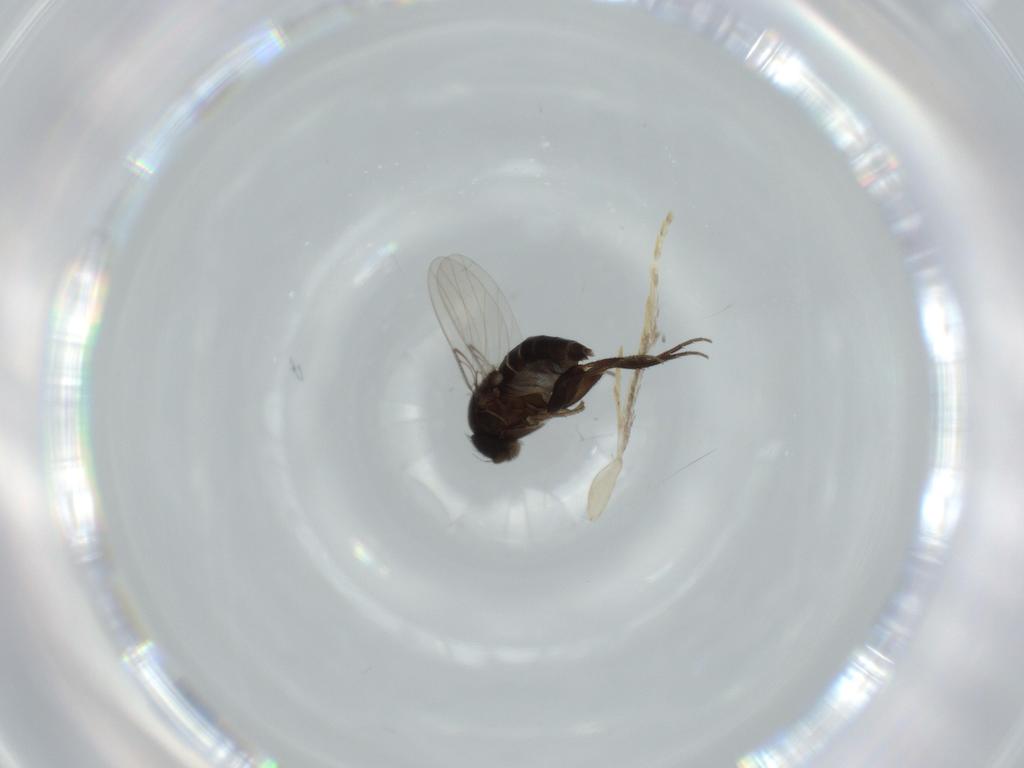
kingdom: Animalia
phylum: Arthropoda
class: Insecta
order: Diptera
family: Phoridae
